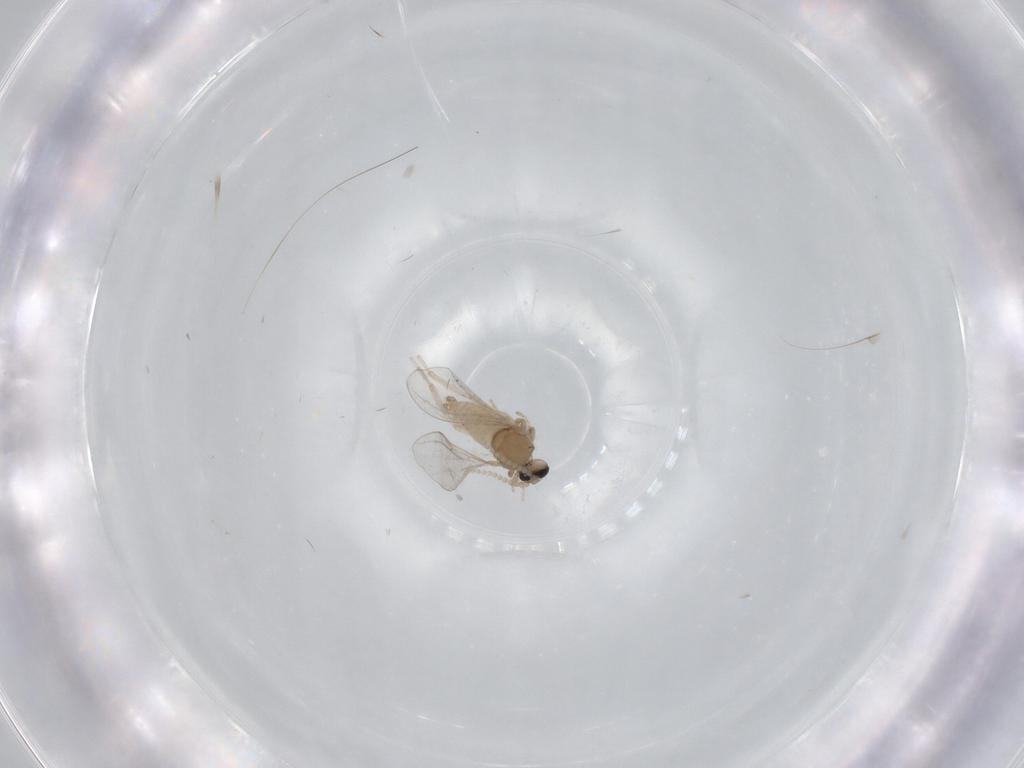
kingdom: Animalia
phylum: Arthropoda
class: Insecta
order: Diptera
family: Cecidomyiidae
